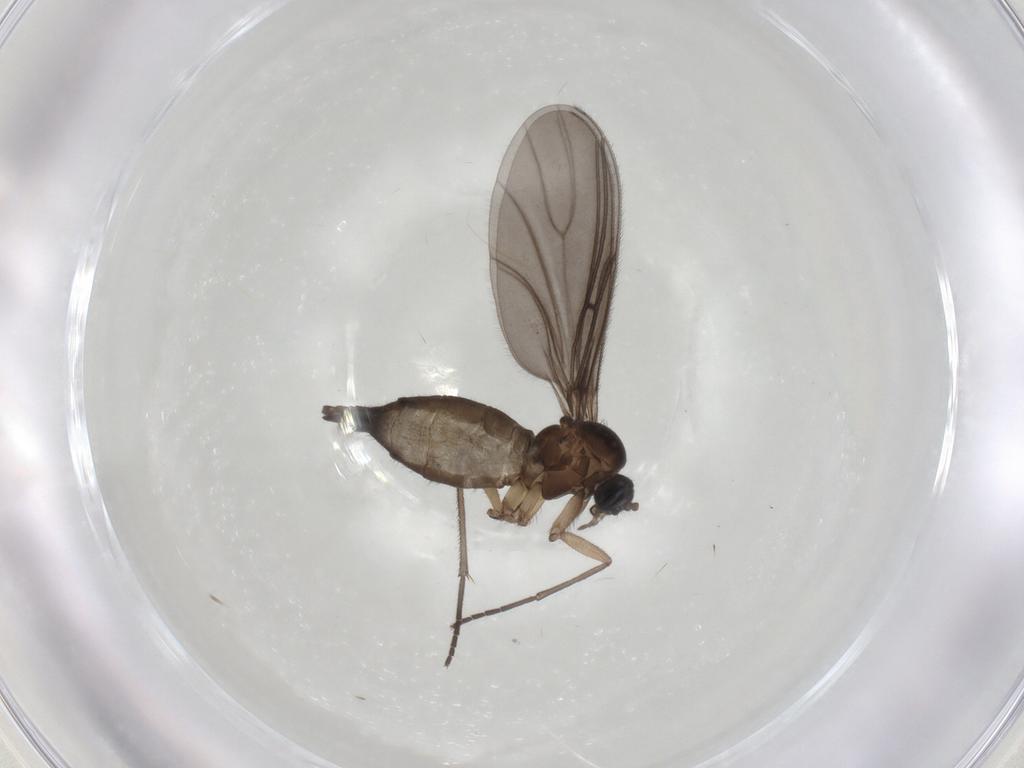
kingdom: Animalia
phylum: Arthropoda
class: Insecta
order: Diptera
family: Sciaridae
